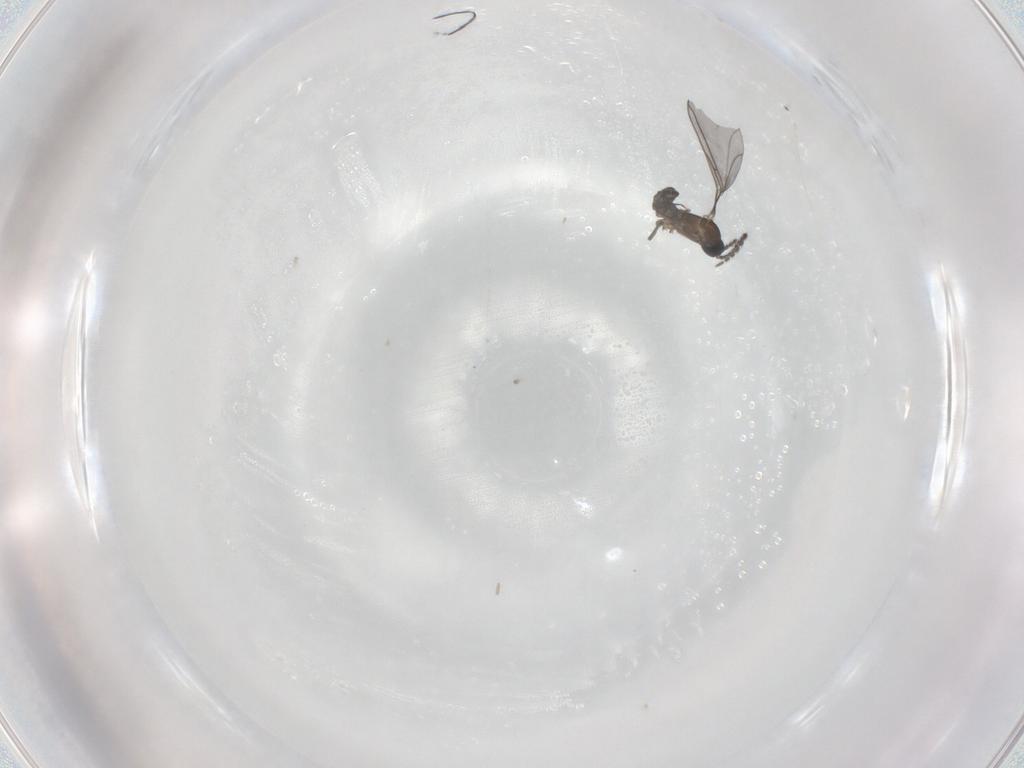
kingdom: Animalia
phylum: Arthropoda
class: Insecta
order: Diptera
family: Cecidomyiidae
